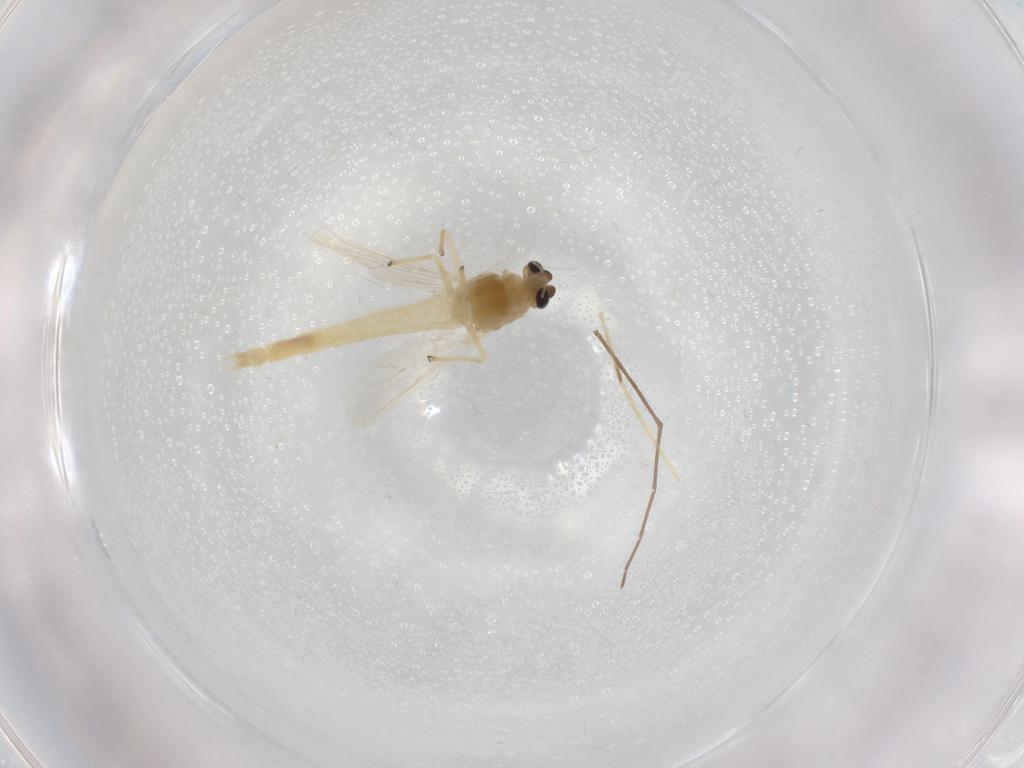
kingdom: Animalia
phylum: Arthropoda
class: Insecta
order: Diptera
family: Chironomidae
